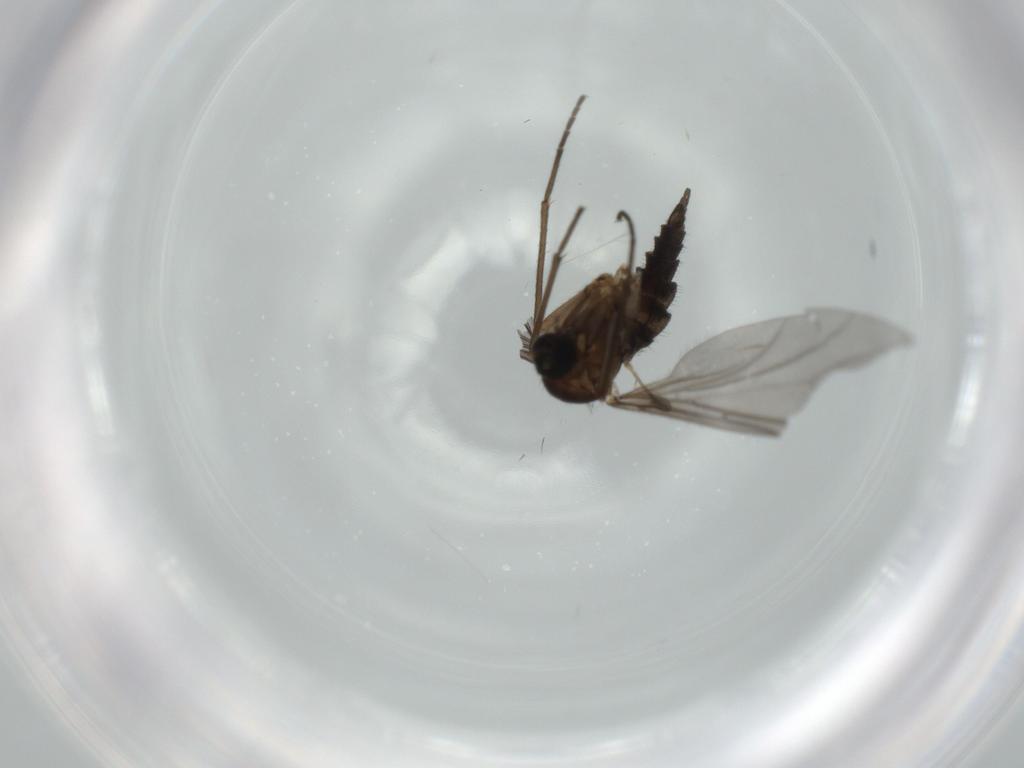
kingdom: Animalia
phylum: Arthropoda
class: Insecta
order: Diptera
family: Sciaridae
